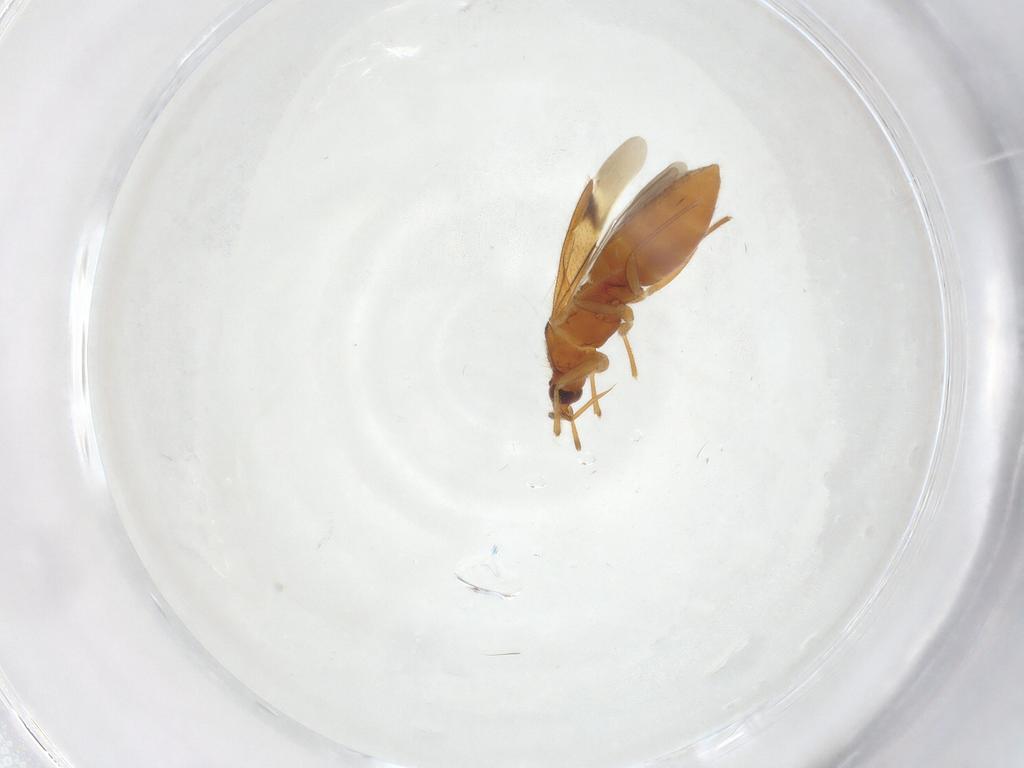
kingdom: Animalia
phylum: Arthropoda
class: Insecta
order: Hemiptera
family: Anthocoridae
